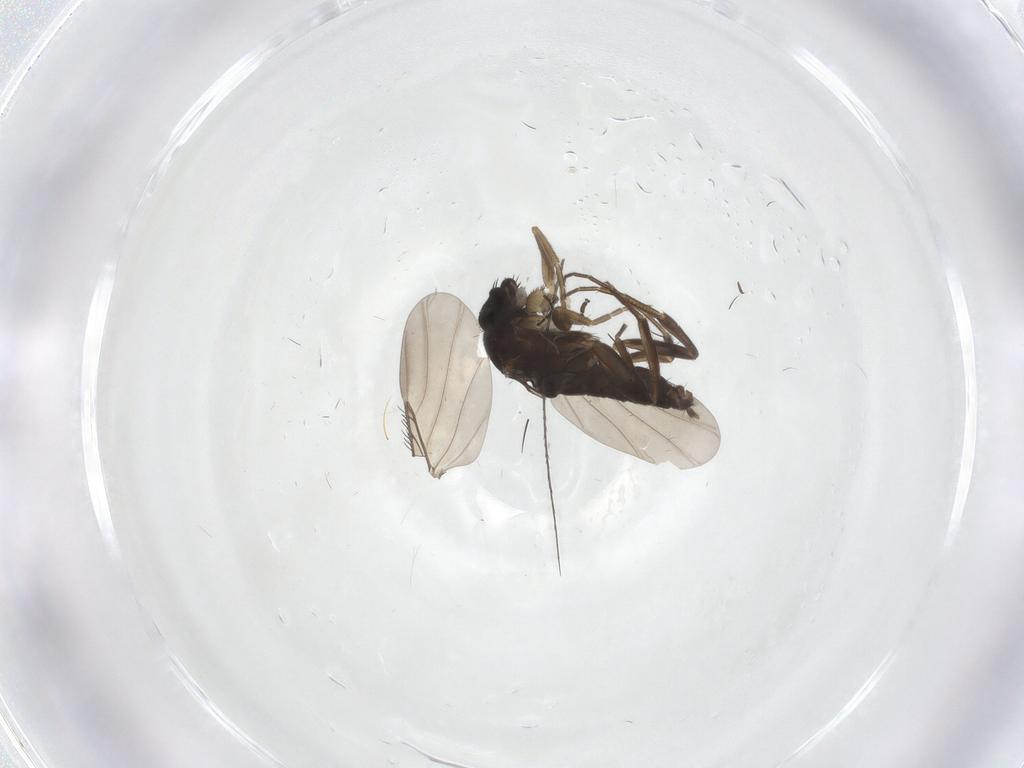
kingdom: Animalia
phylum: Arthropoda
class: Insecta
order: Diptera
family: Phoridae
